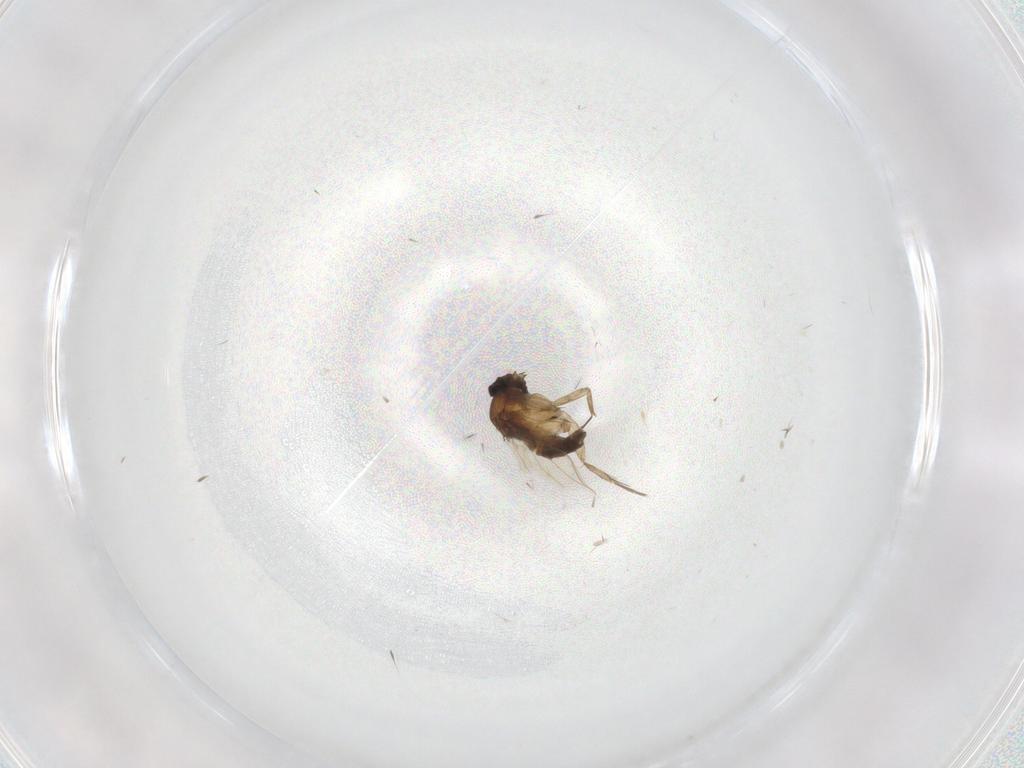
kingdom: Animalia
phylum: Arthropoda
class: Insecta
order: Diptera
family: Phoridae
